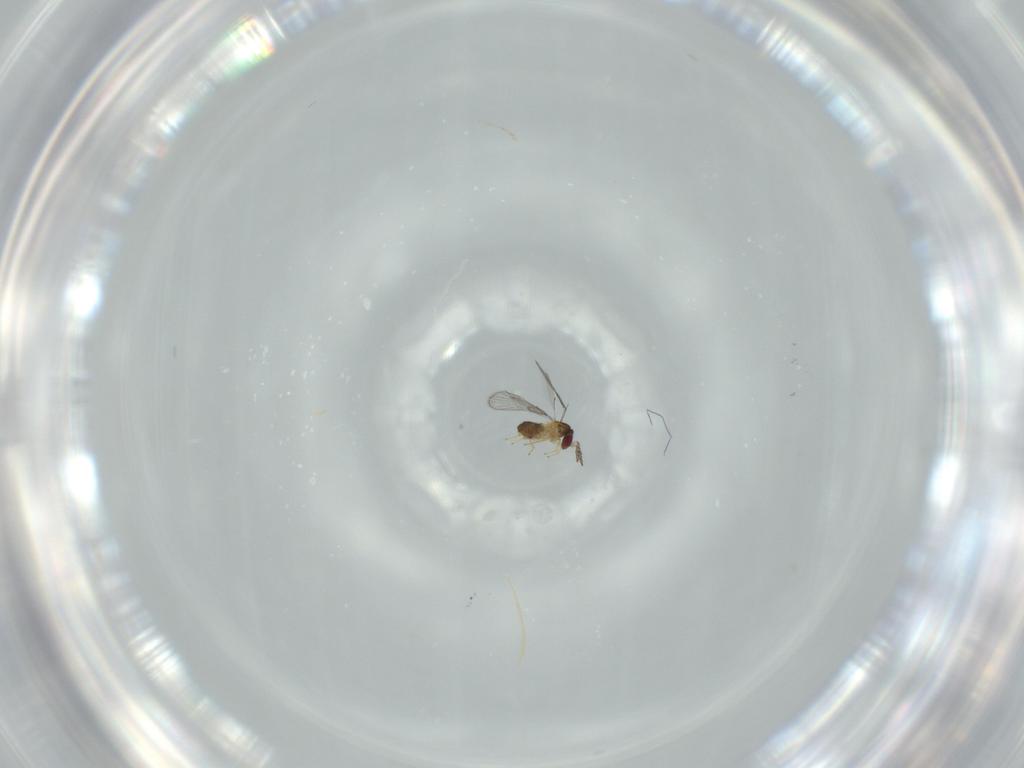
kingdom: Animalia
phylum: Arthropoda
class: Insecta
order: Hymenoptera
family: Trichogrammatidae
